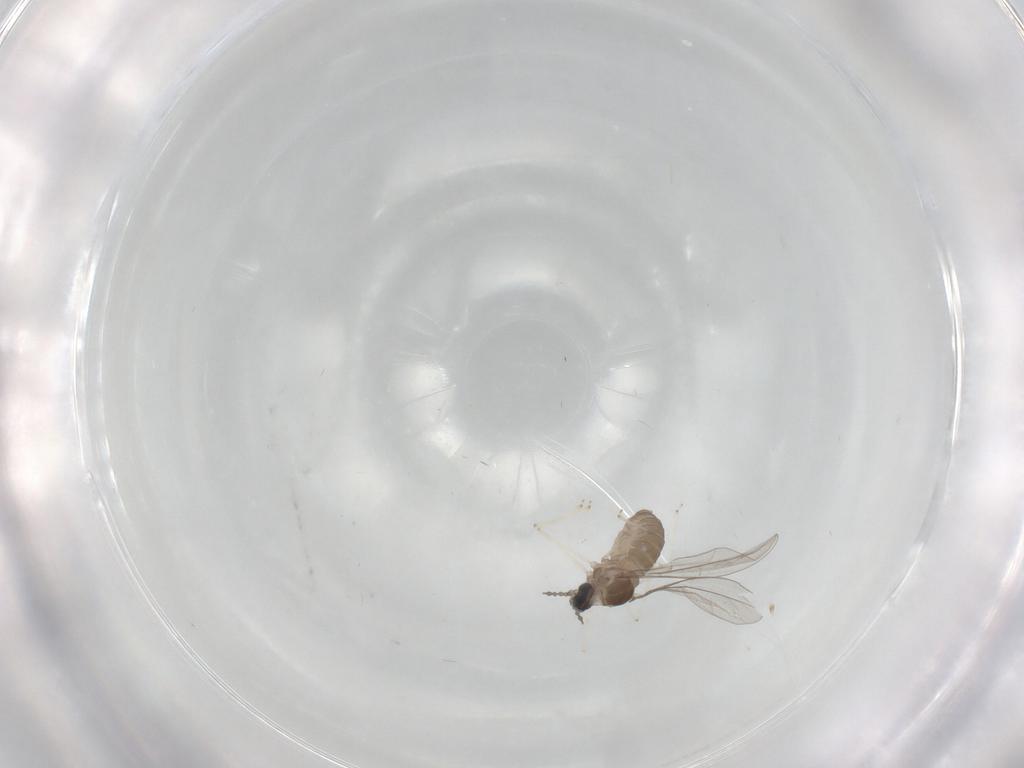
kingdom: Animalia
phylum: Arthropoda
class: Insecta
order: Diptera
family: Cecidomyiidae
